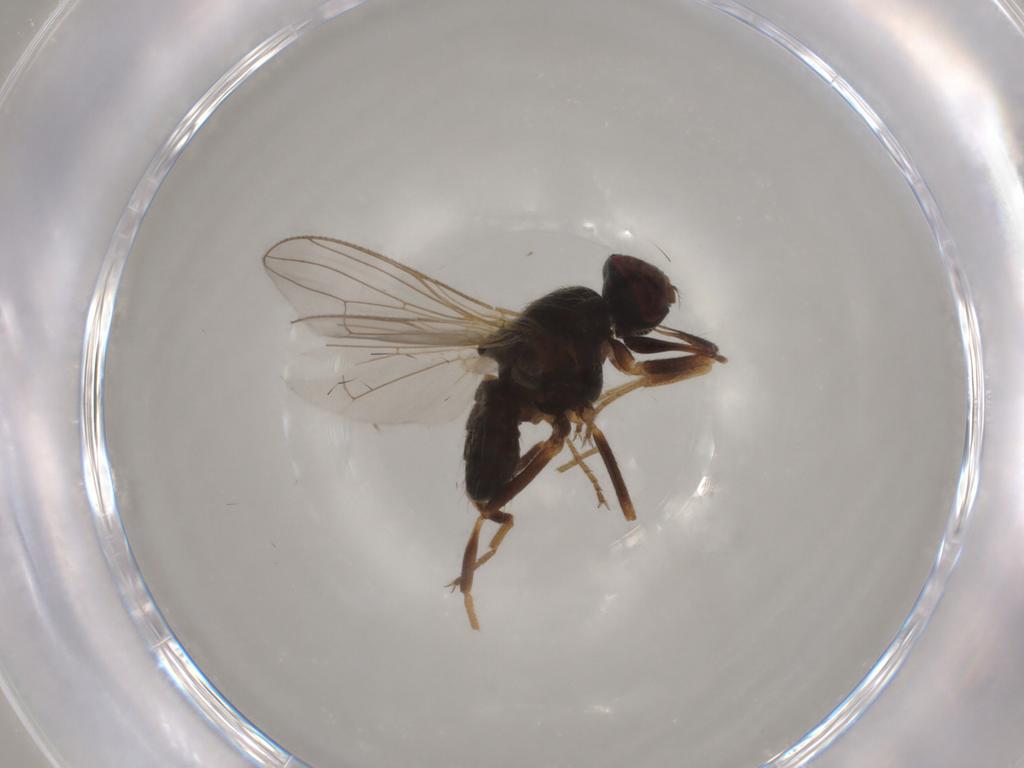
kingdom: Animalia
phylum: Arthropoda
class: Insecta
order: Diptera
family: Muscidae
